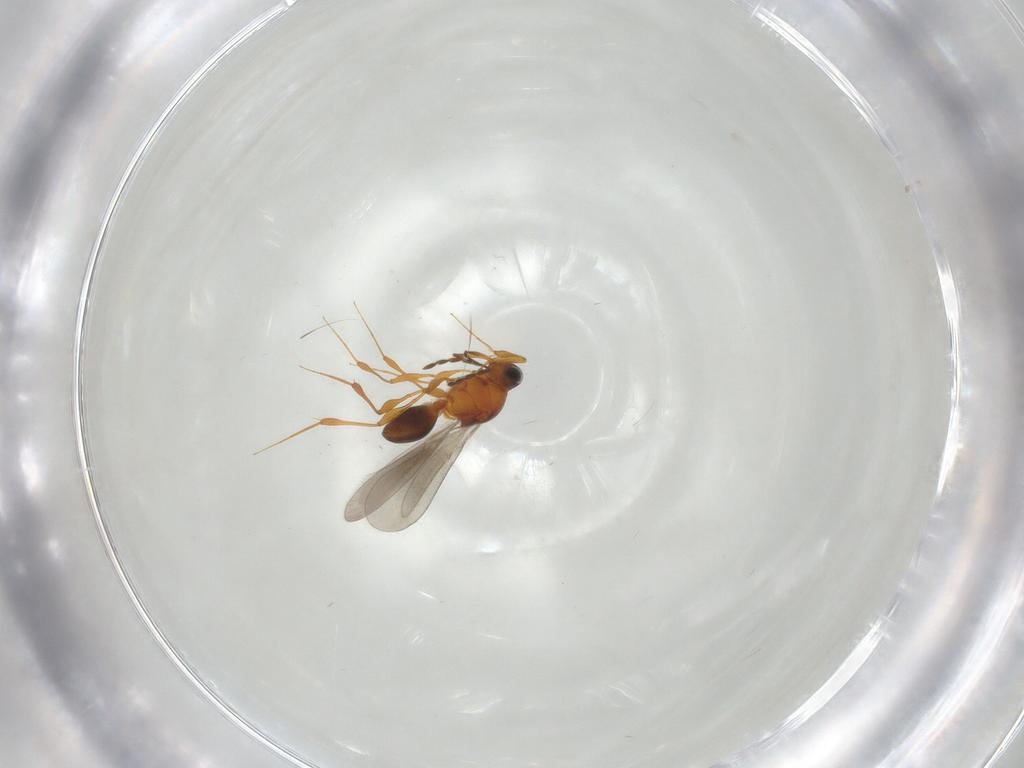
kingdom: Animalia
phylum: Arthropoda
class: Insecta
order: Hymenoptera
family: Platygastridae
